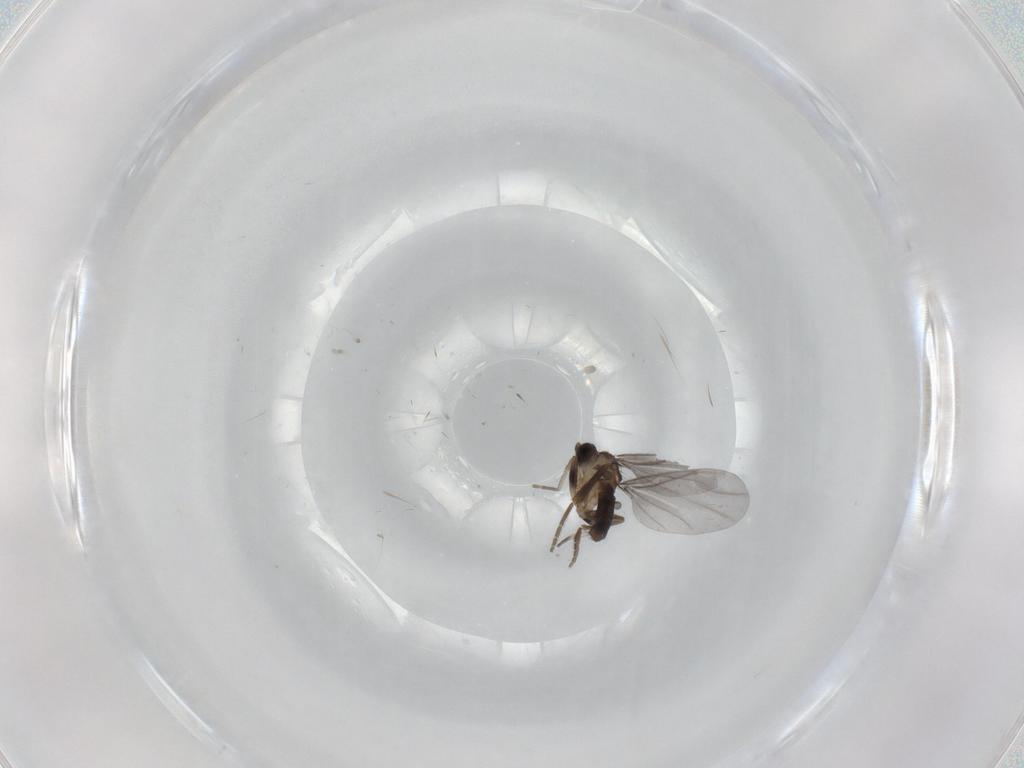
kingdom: Animalia
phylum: Arthropoda
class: Insecta
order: Diptera
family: Phoridae
